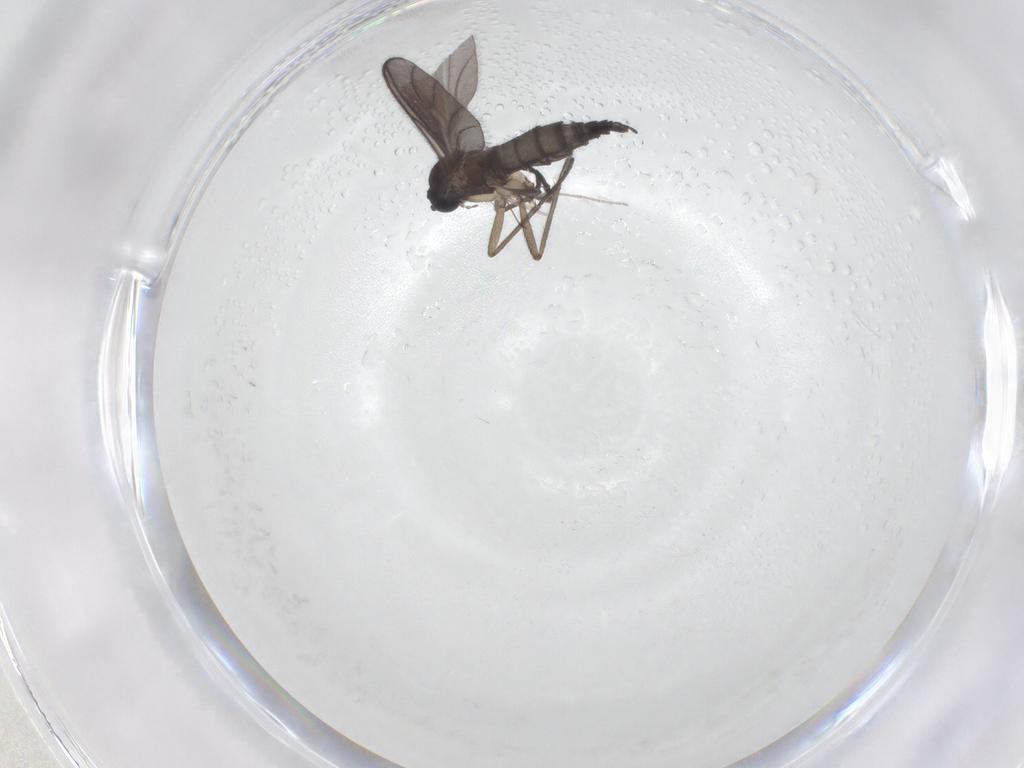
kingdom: Animalia
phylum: Arthropoda
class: Insecta
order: Diptera
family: Sciaridae
